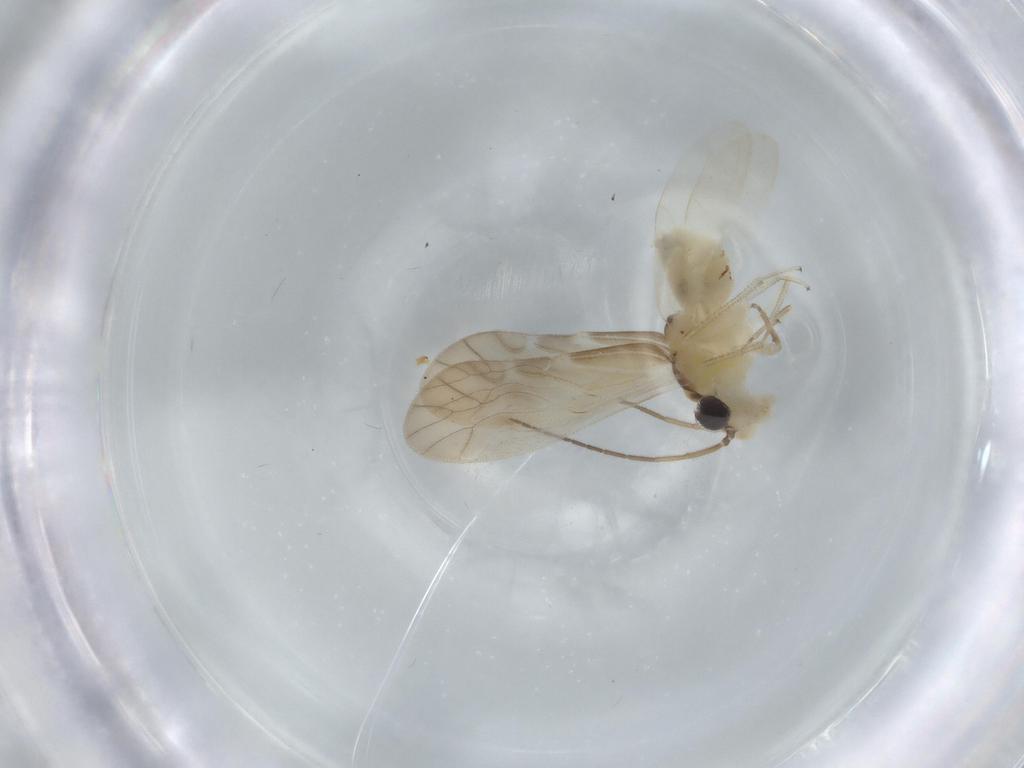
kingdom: Animalia
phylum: Arthropoda
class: Insecta
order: Psocodea
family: Caeciliusidae
